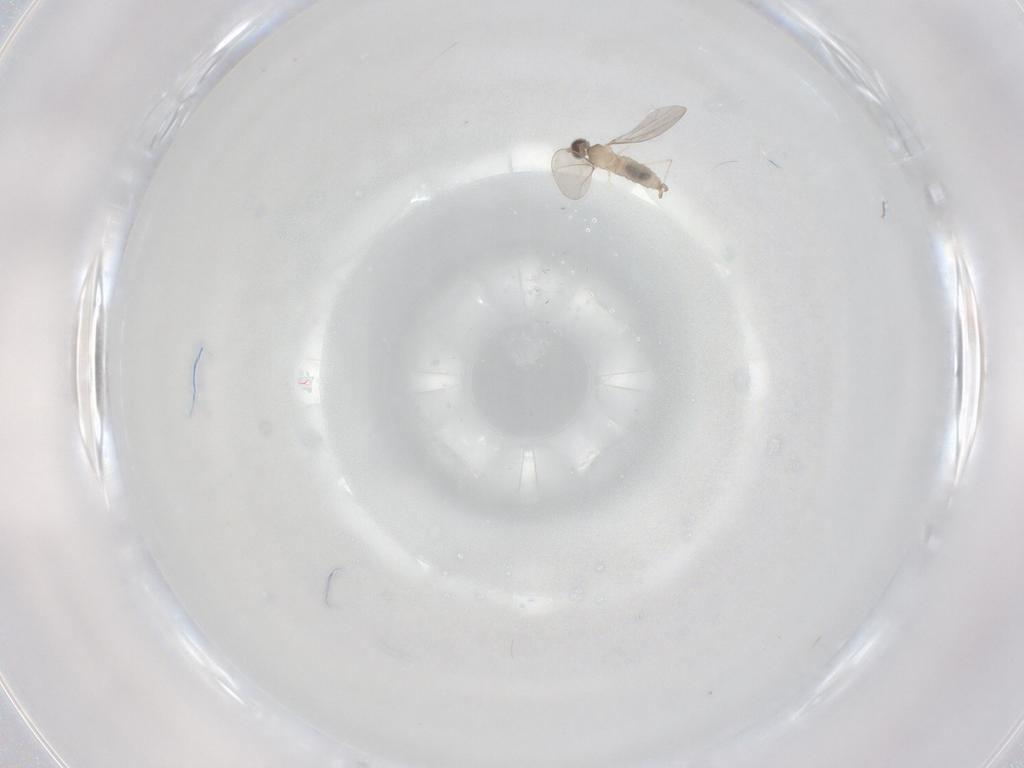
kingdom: Animalia
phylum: Arthropoda
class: Insecta
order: Diptera
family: Cecidomyiidae
